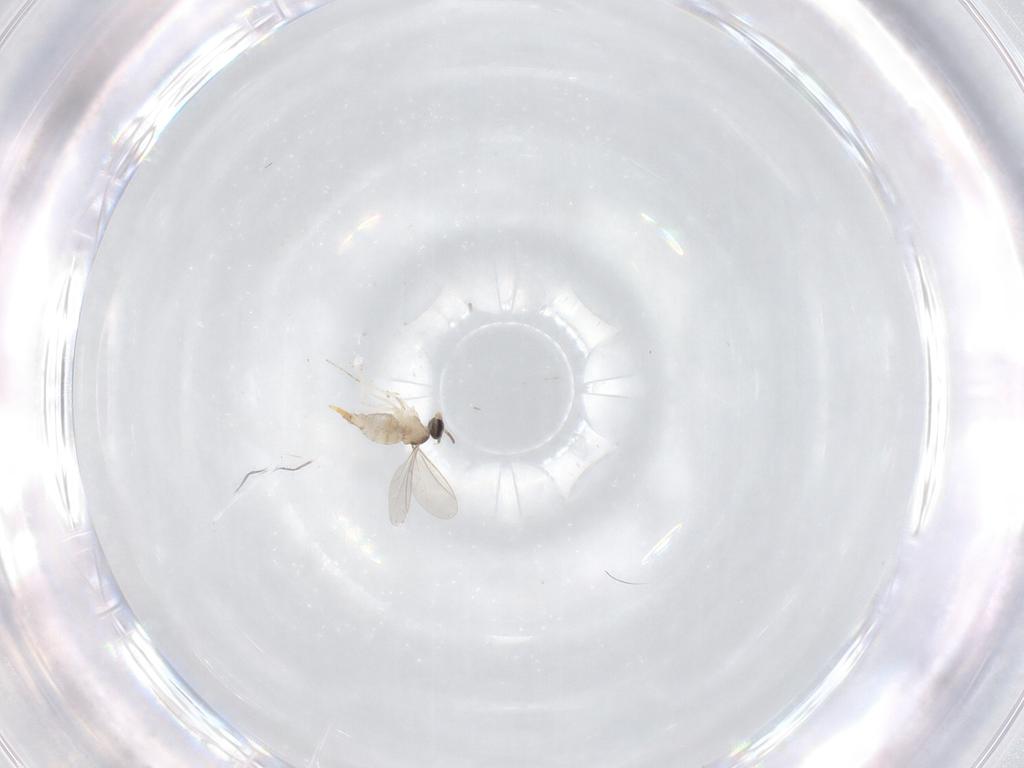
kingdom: Animalia
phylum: Arthropoda
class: Insecta
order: Diptera
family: Cecidomyiidae
